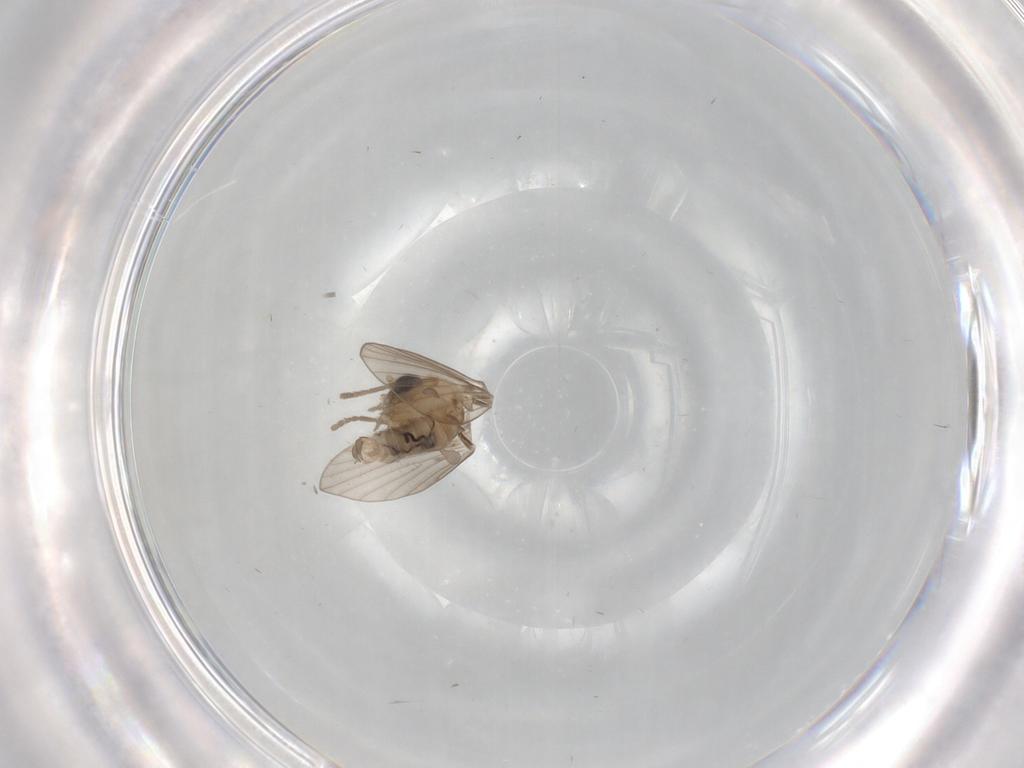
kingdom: Animalia
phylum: Arthropoda
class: Insecta
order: Diptera
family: Psychodidae
